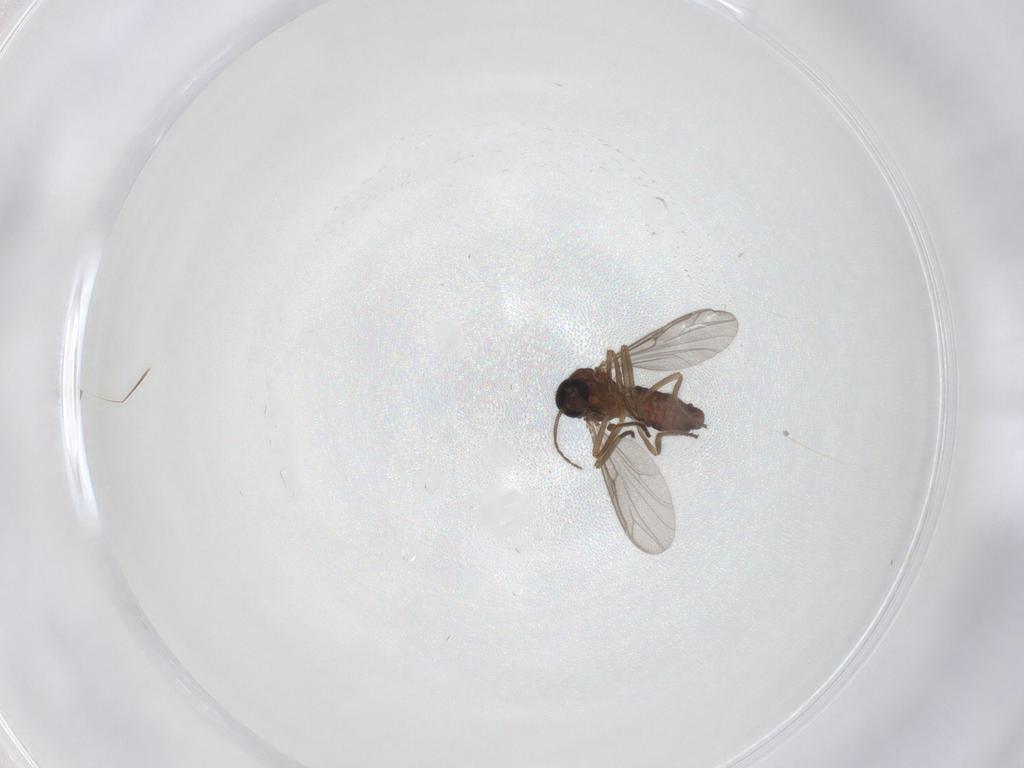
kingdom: Animalia
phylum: Arthropoda
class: Insecta
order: Diptera
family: Ceratopogonidae
